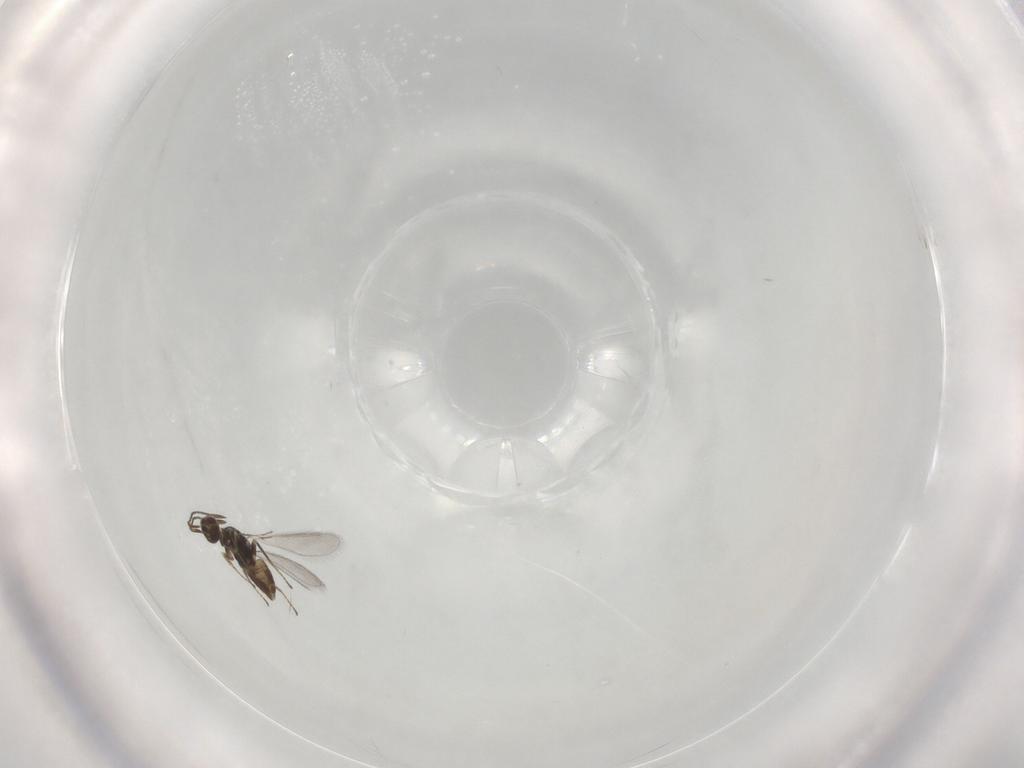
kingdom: Animalia
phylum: Arthropoda
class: Insecta
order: Hymenoptera
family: Mymaridae
